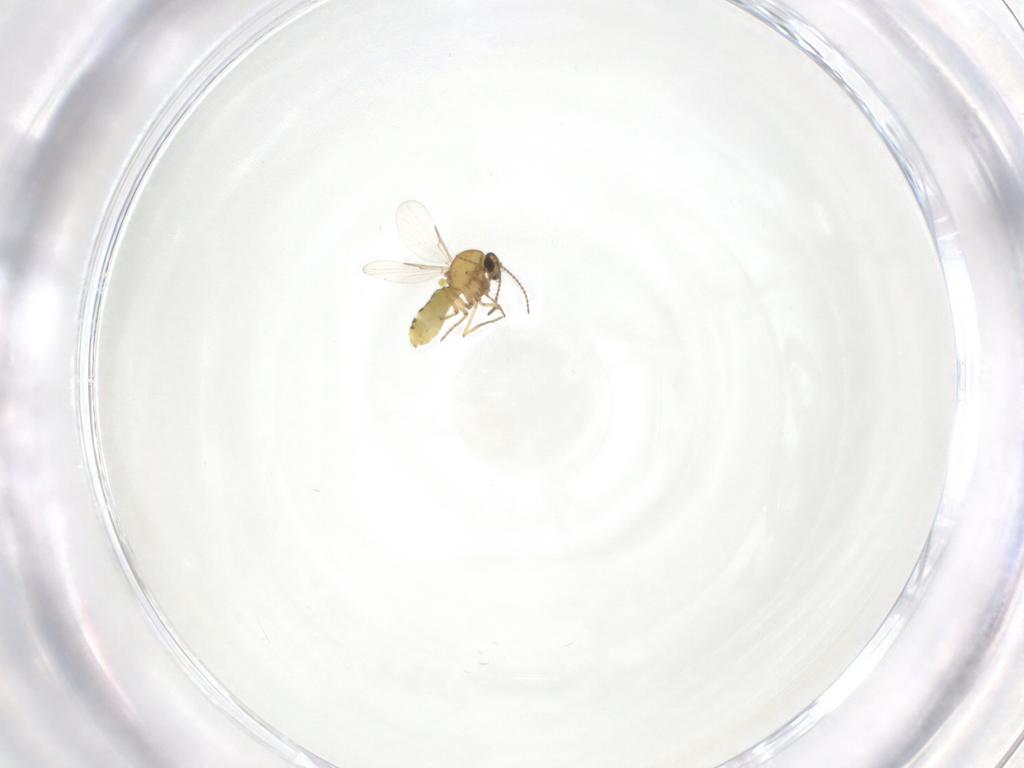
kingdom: Animalia
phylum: Arthropoda
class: Insecta
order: Diptera
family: Ceratopogonidae
